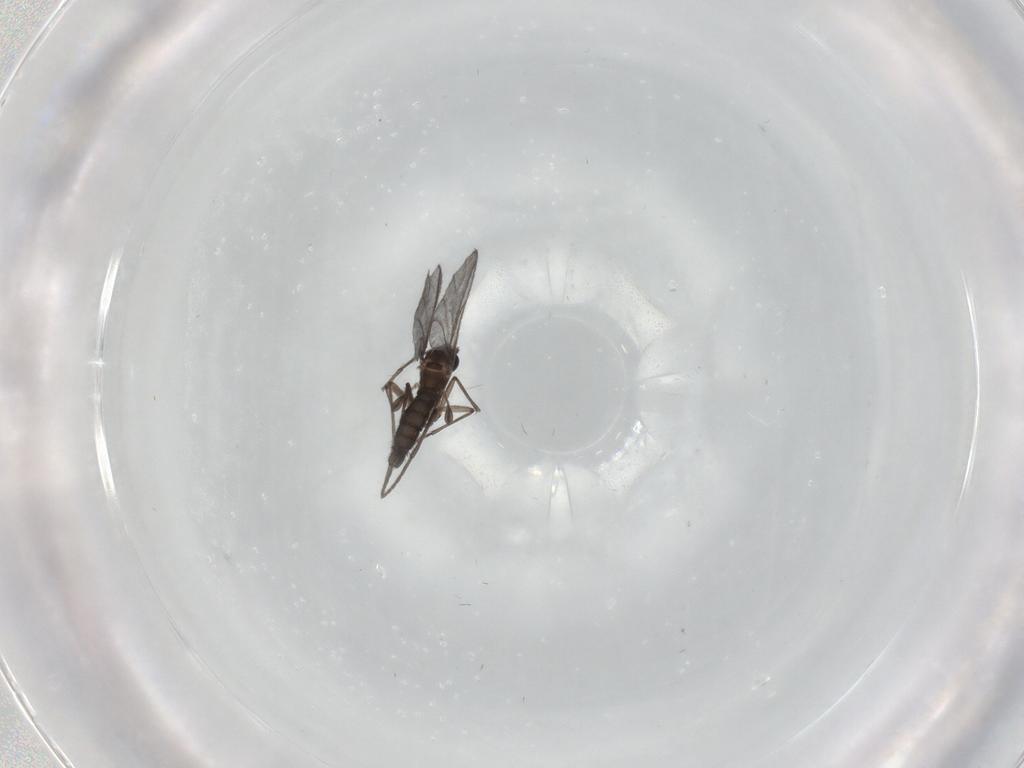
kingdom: Animalia
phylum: Arthropoda
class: Insecta
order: Diptera
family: Chironomidae
